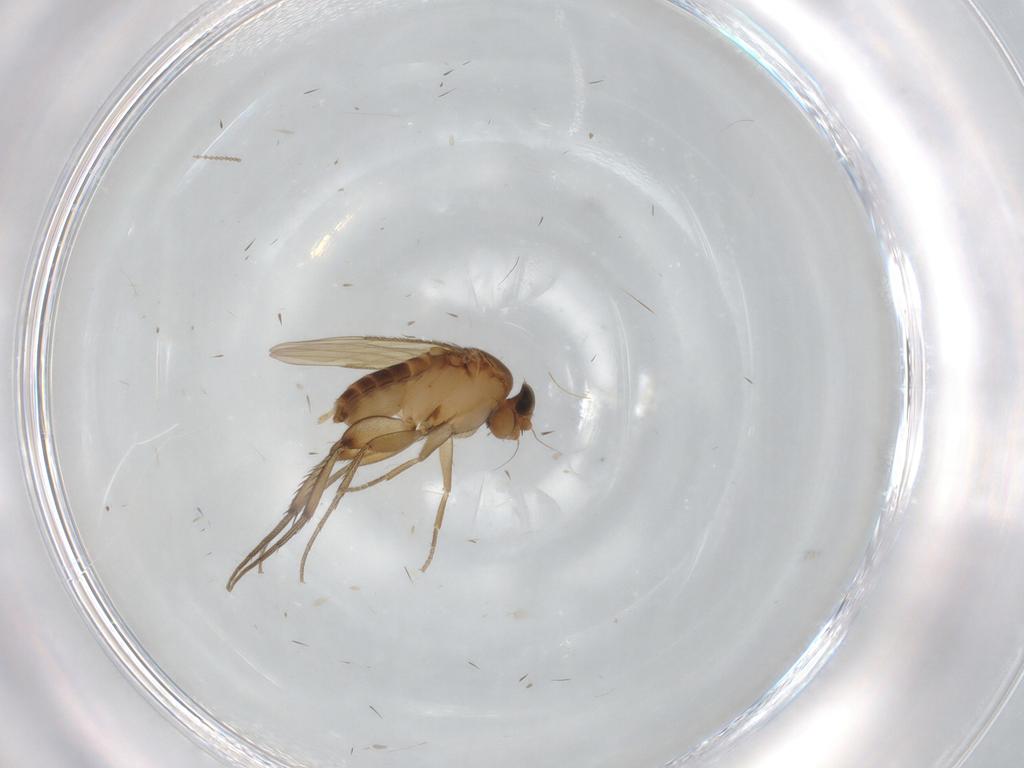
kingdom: Animalia
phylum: Arthropoda
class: Insecta
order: Diptera
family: Phoridae
